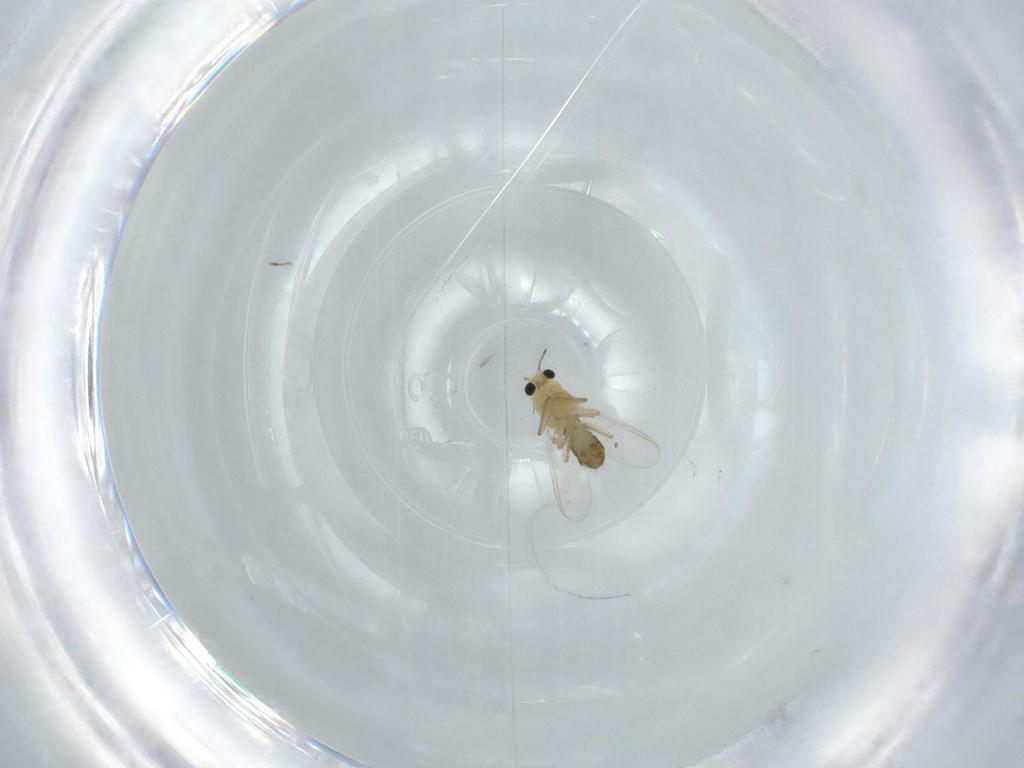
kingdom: Animalia
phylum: Arthropoda
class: Insecta
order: Diptera
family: Chironomidae
